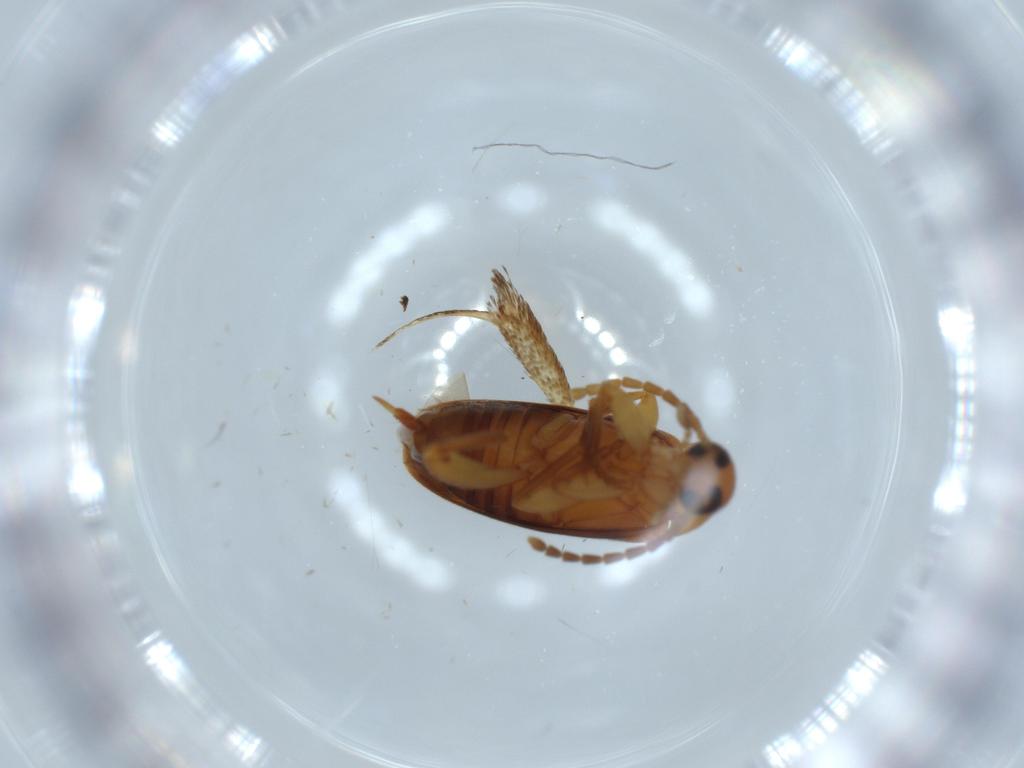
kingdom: Animalia
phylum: Arthropoda
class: Insecta
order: Coleoptera
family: Scraptiidae
